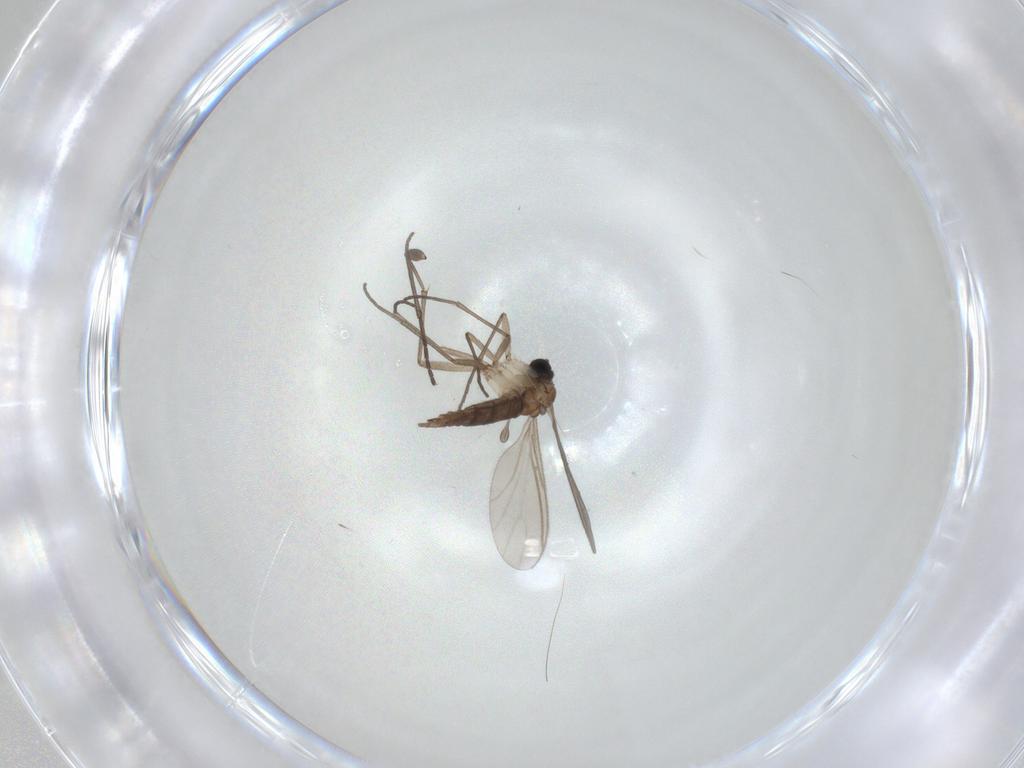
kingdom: Animalia
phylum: Arthropoda
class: Insecta
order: Diptera
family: Sciaridae
